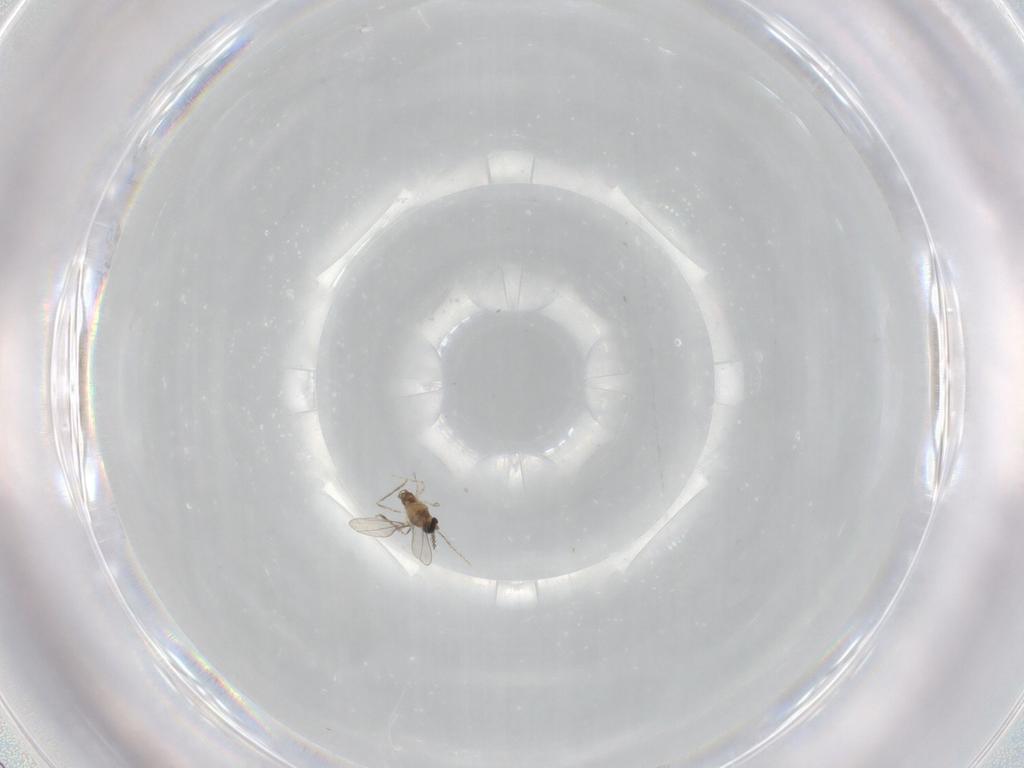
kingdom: Animalia
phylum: Arthropoda
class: Insecta
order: Diptera
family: Cecidomyiidae
